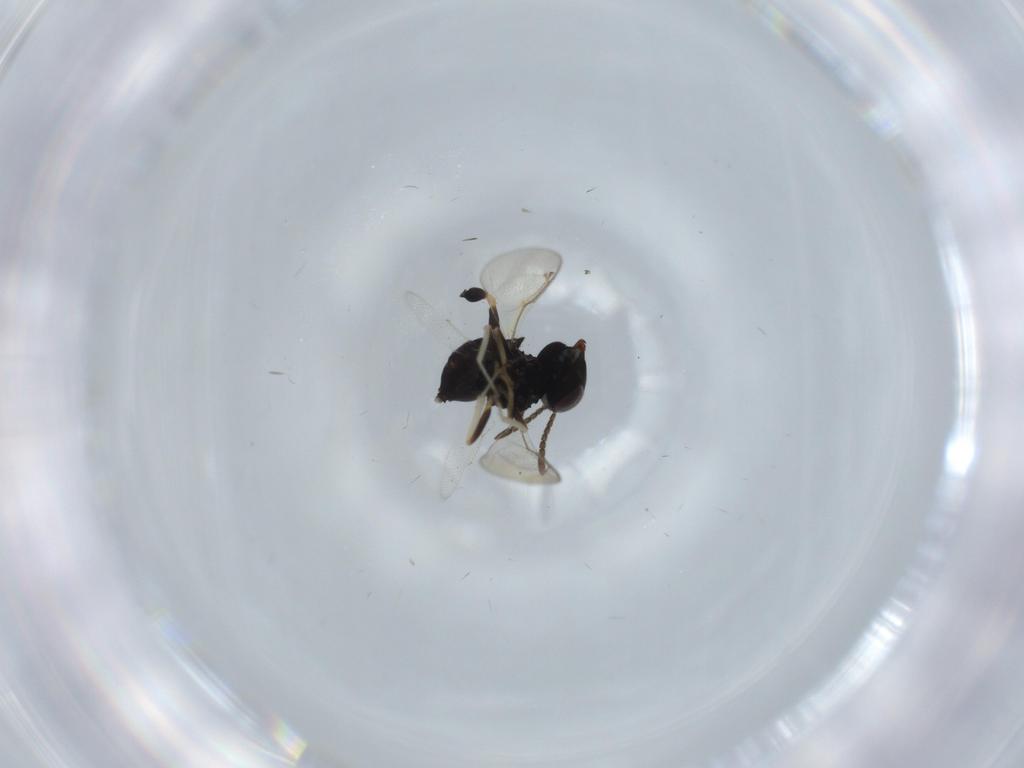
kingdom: Animalia
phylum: Arthropoda
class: Insecta
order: Hymenoptera
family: Pteromalidae
